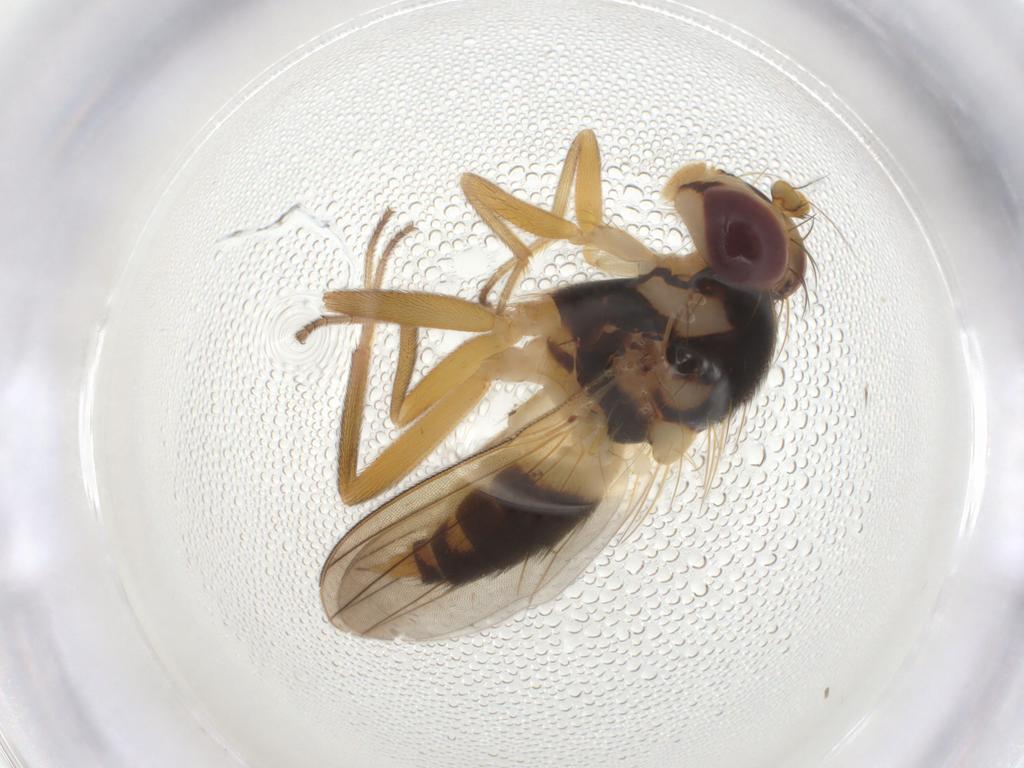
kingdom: Animalia
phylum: Arthropoda
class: Insecta
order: Diptera
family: Clusiidae
